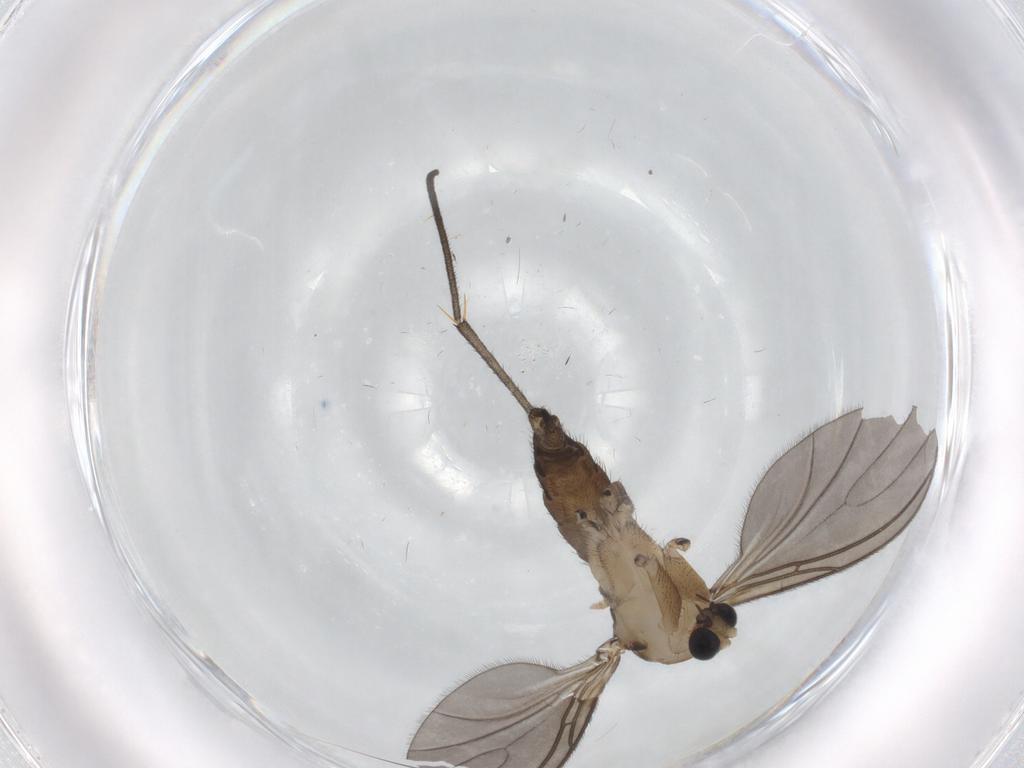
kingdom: Animalia
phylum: Arthropoda
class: Insecta
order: Diptera
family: Sciaridae
